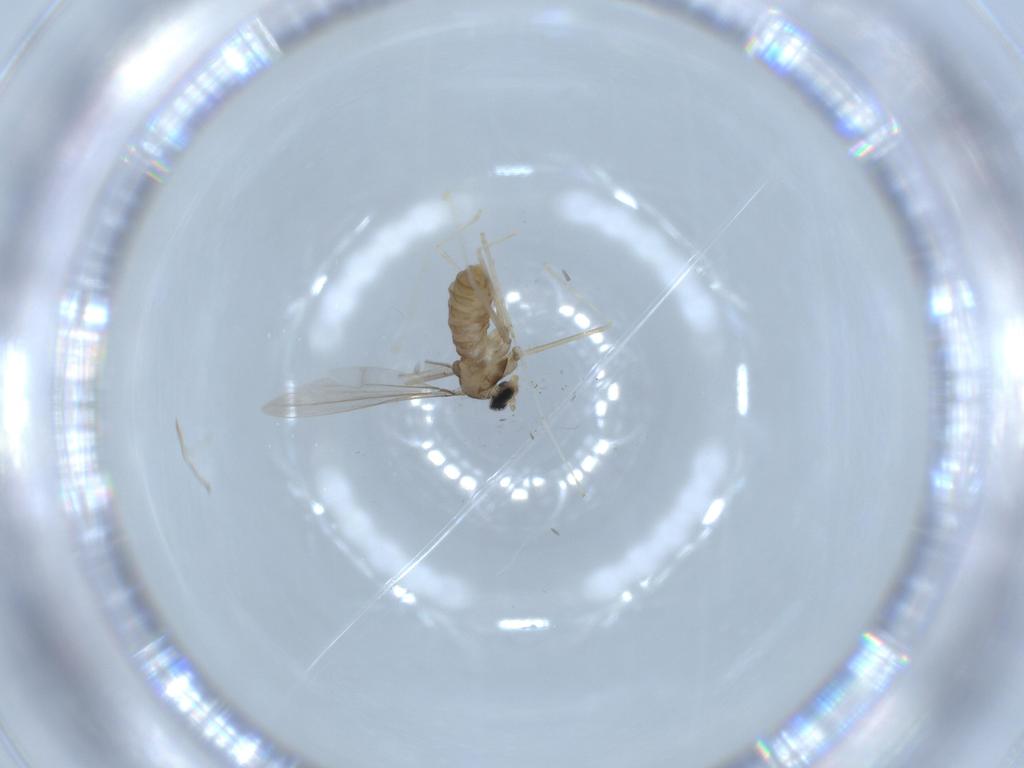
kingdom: Animalia
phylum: Arthropoda
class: Insecta
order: Diptera
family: Cecidomyiidae
